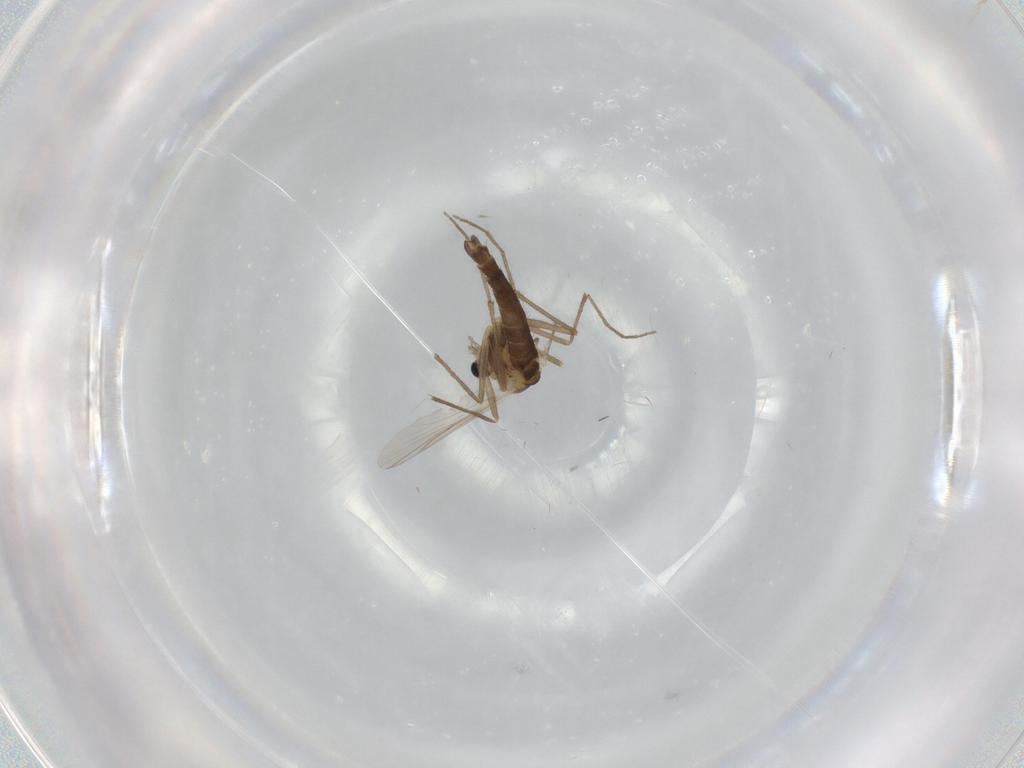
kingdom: Animalia
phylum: Arthropoda
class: Insecta
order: Diptera
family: Chironomidae
